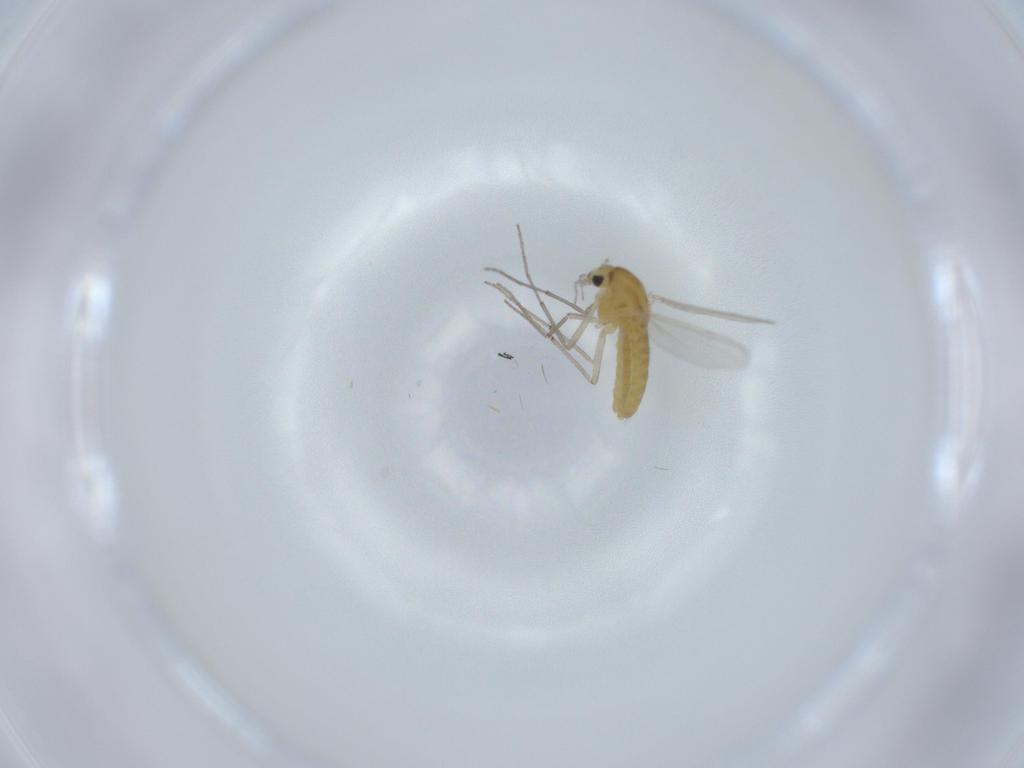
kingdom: Animalia
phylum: Arthropoda
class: Insecta
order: Diptera
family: Chironomidae
